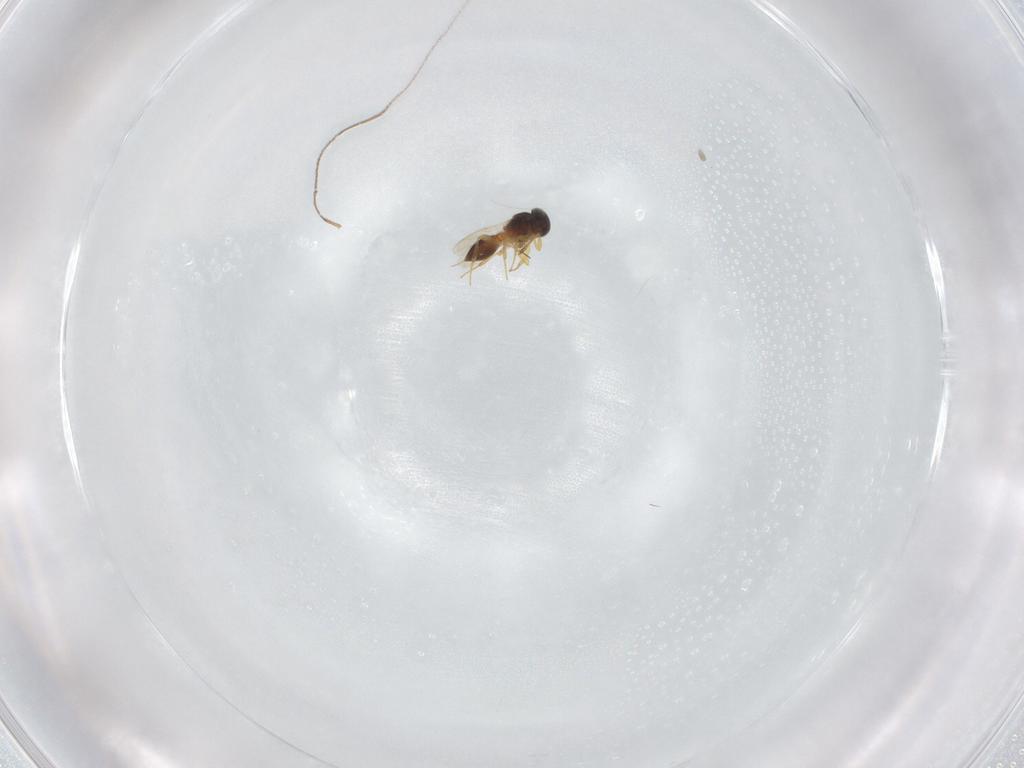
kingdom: Animalia
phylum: Arthropoda
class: Insecta
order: Hymenoptera
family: Platygastridae
